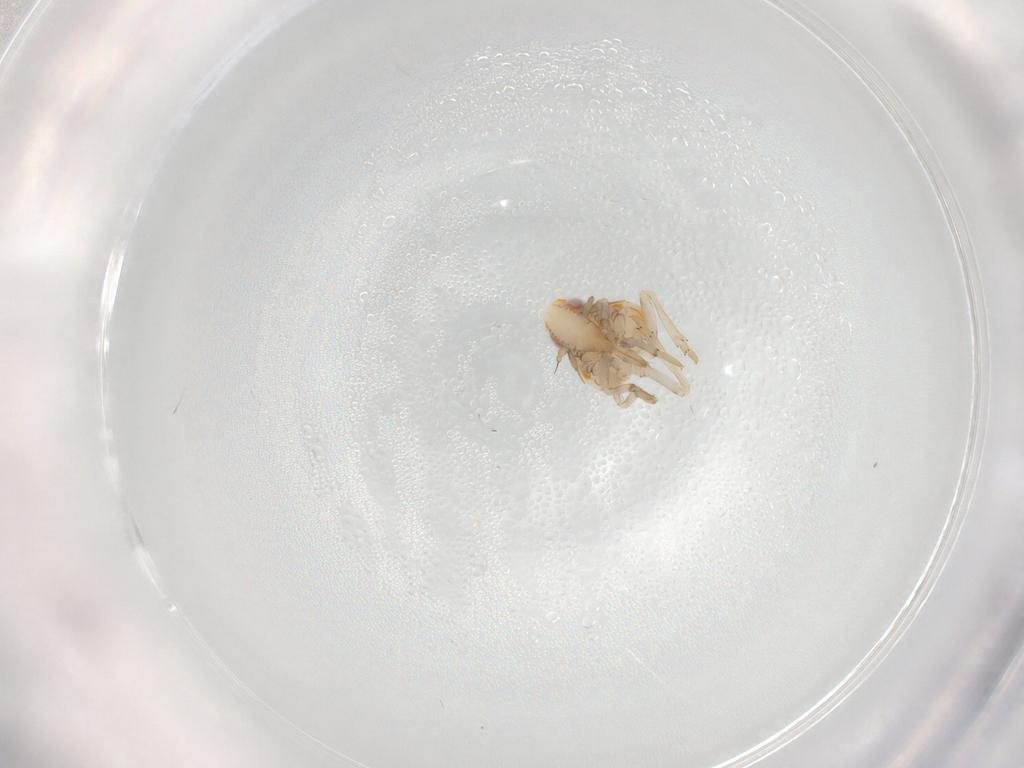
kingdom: Animalia
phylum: Arthropoda
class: Insecta
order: Hemiptera
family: Ricaniidae
